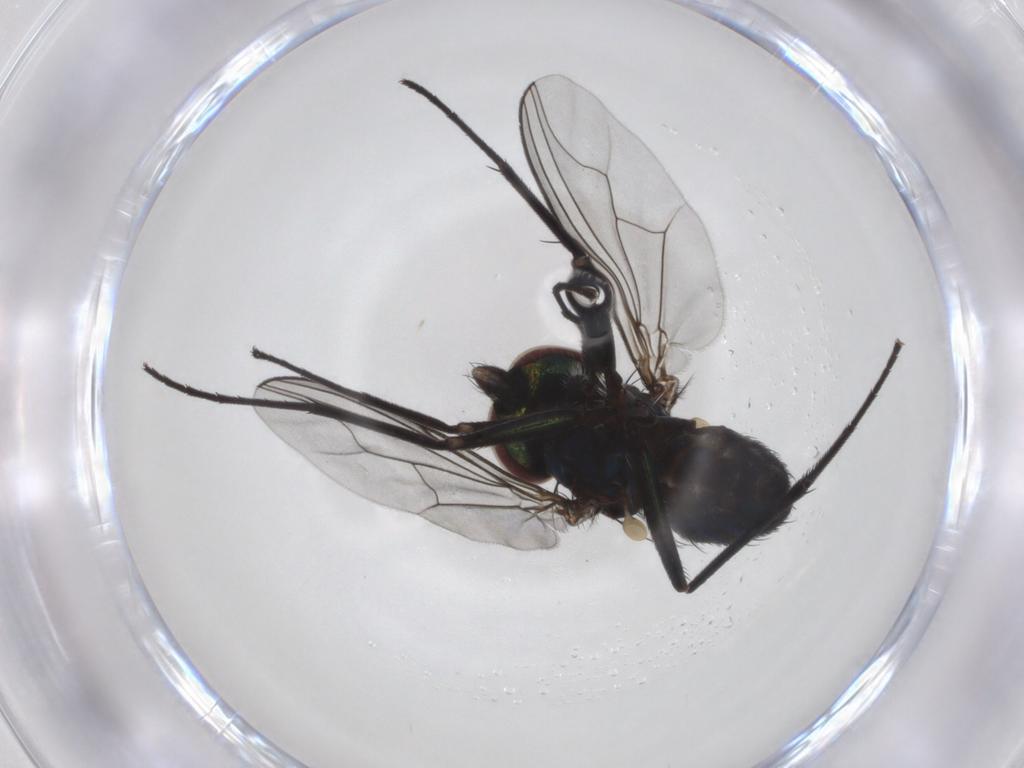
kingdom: Animalia
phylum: Arthropoda
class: Insecta
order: Diptera
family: Dolichopodidae
